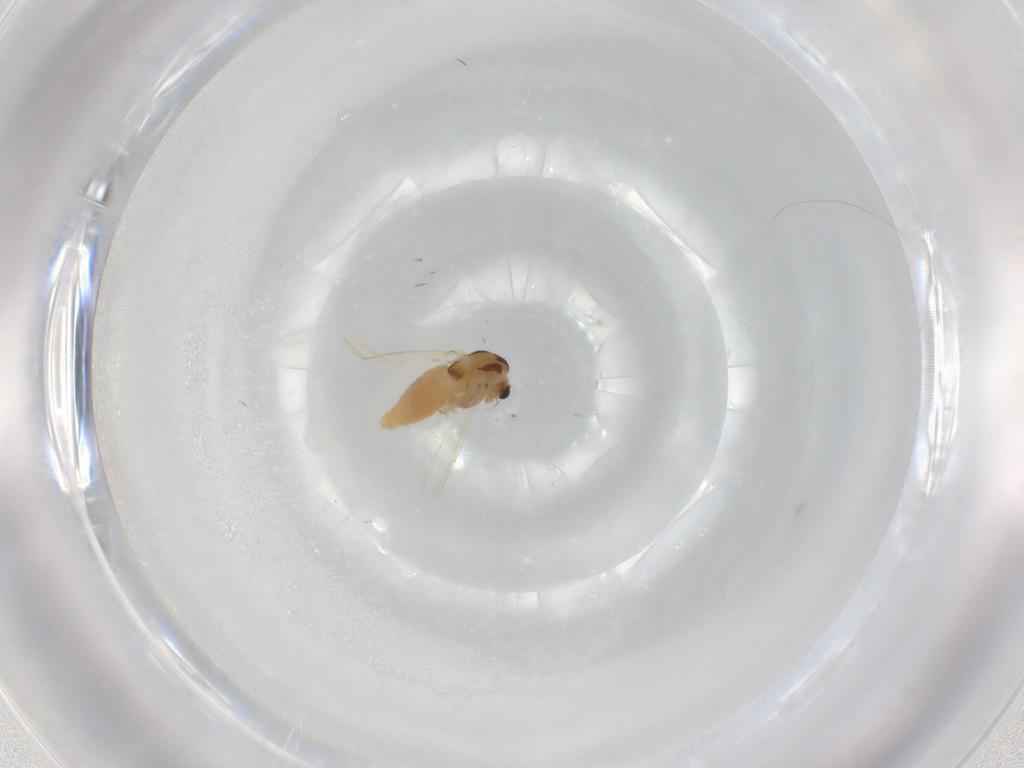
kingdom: Animalia
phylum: Arthropoda
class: Insecta
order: Diptera
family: Chironomidae
